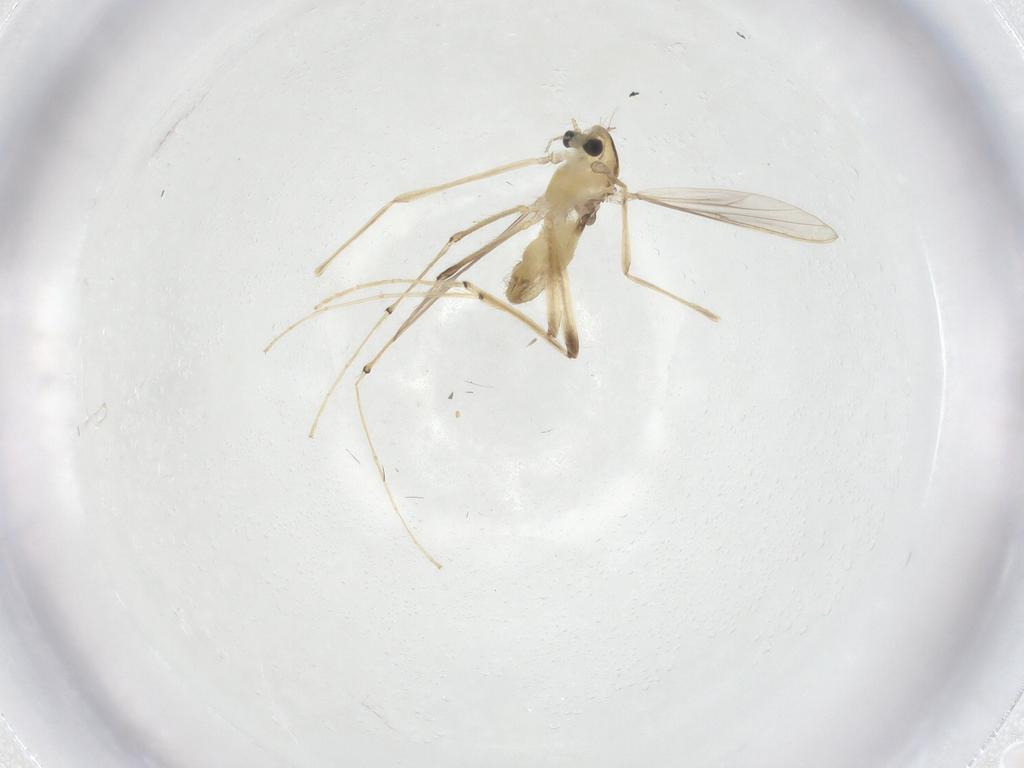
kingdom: Animalia
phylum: Arthropoda
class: Insecta
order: Diptera
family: Chironomidae
